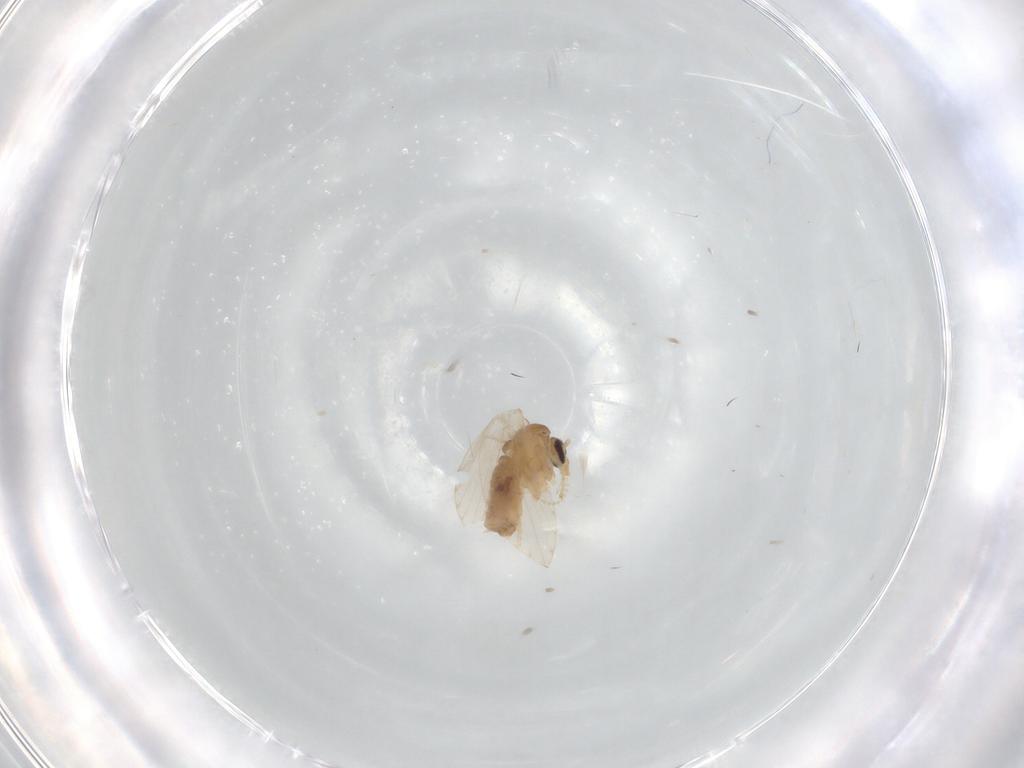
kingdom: Animalia
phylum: Arthropoda
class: Insecta
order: Diptera
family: Psychodidae
